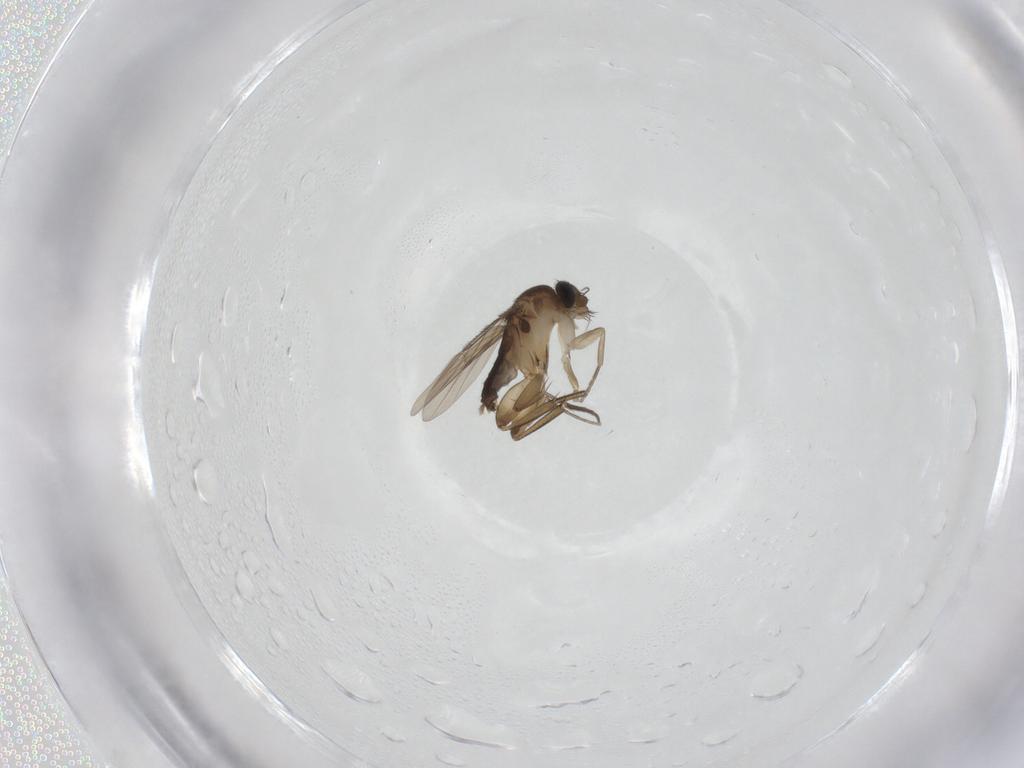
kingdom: Animalia
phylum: Arthropoda
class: Insecta
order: Diptera
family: Phoridae
